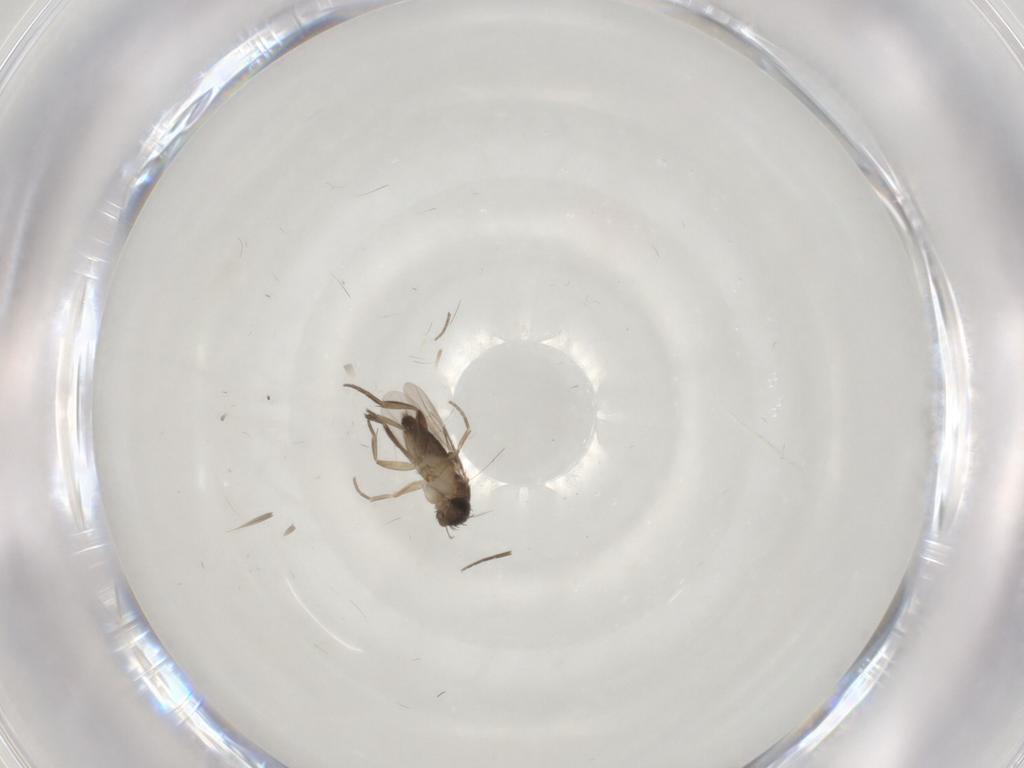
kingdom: Animalia
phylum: Arthropoda
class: Insecta
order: Diptera
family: Phoridae
